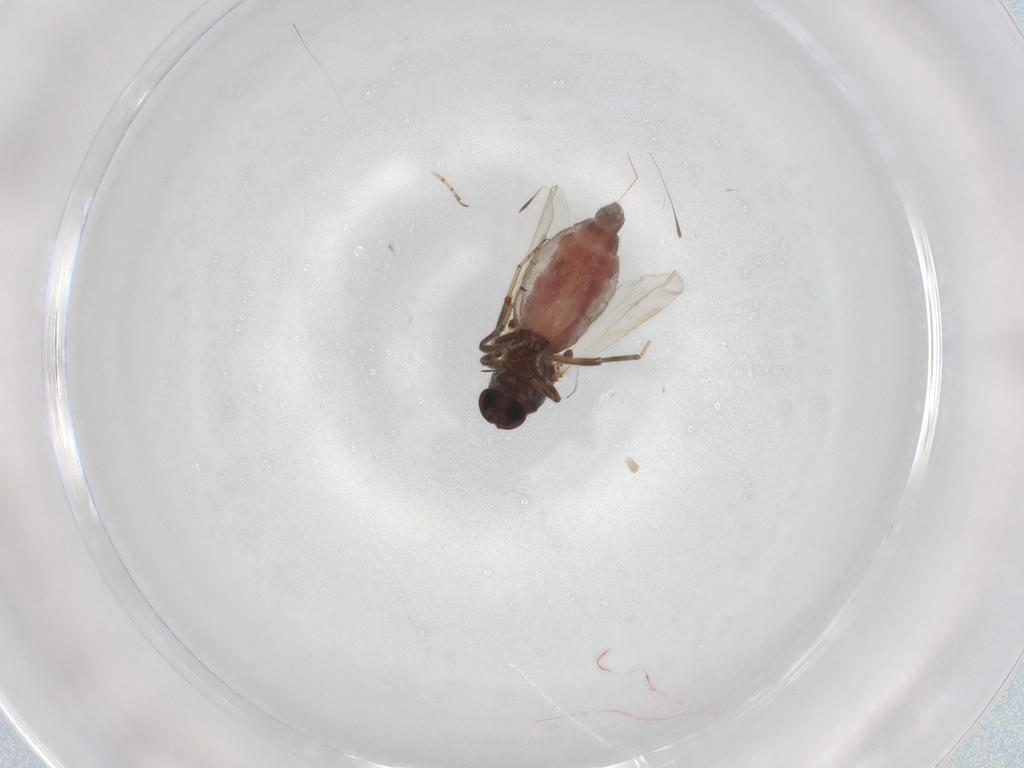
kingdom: Animalia
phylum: Arthropoda
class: Insecta
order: Diptera
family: Ceratopogonidae
